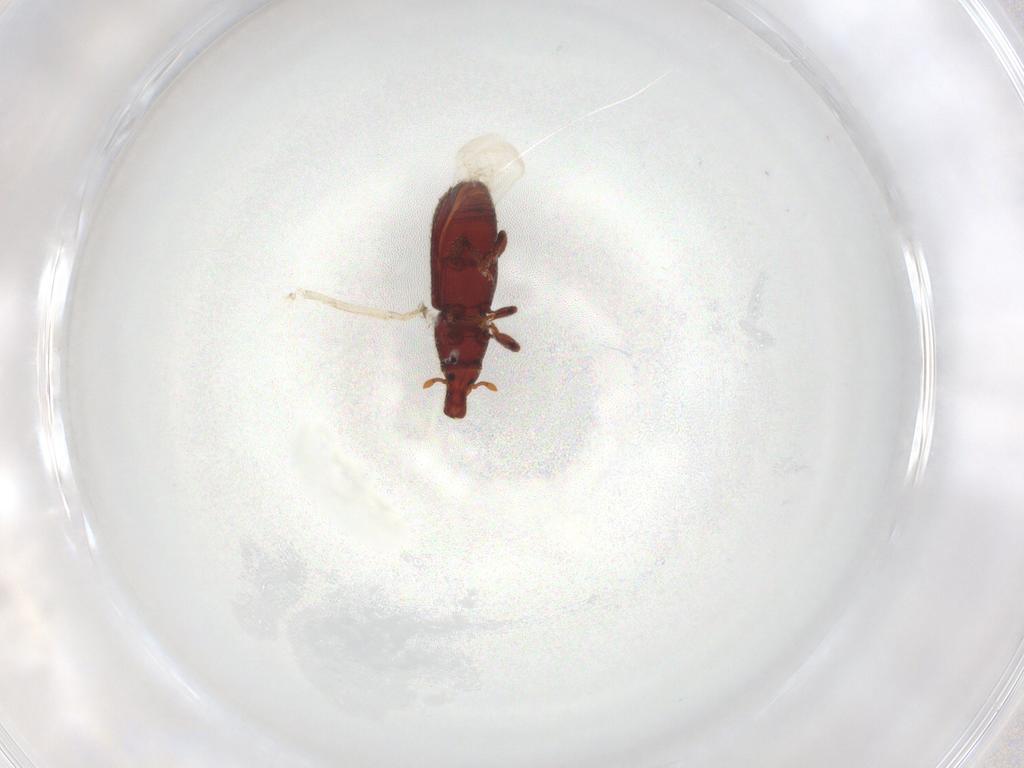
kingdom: Animalia
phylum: Arthropoda
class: Insecta
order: Coleoptera
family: Curculionidae
